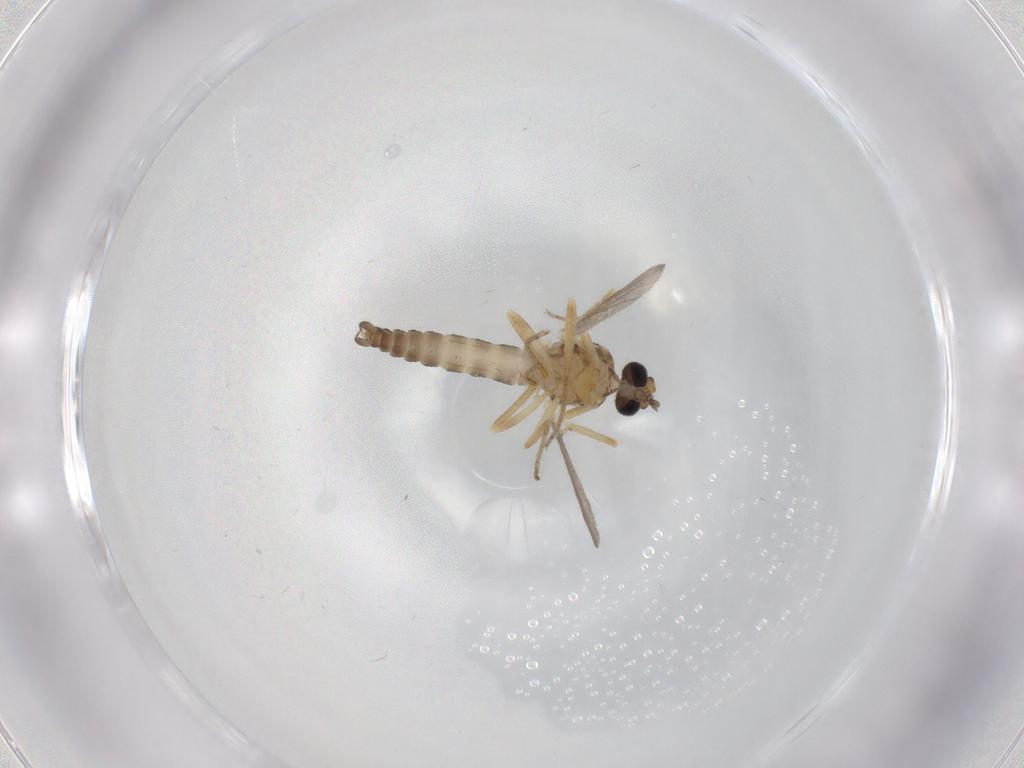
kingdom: Animalia
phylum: Arthropoda
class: Insecta
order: Diptera
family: Ceratopogonidae
